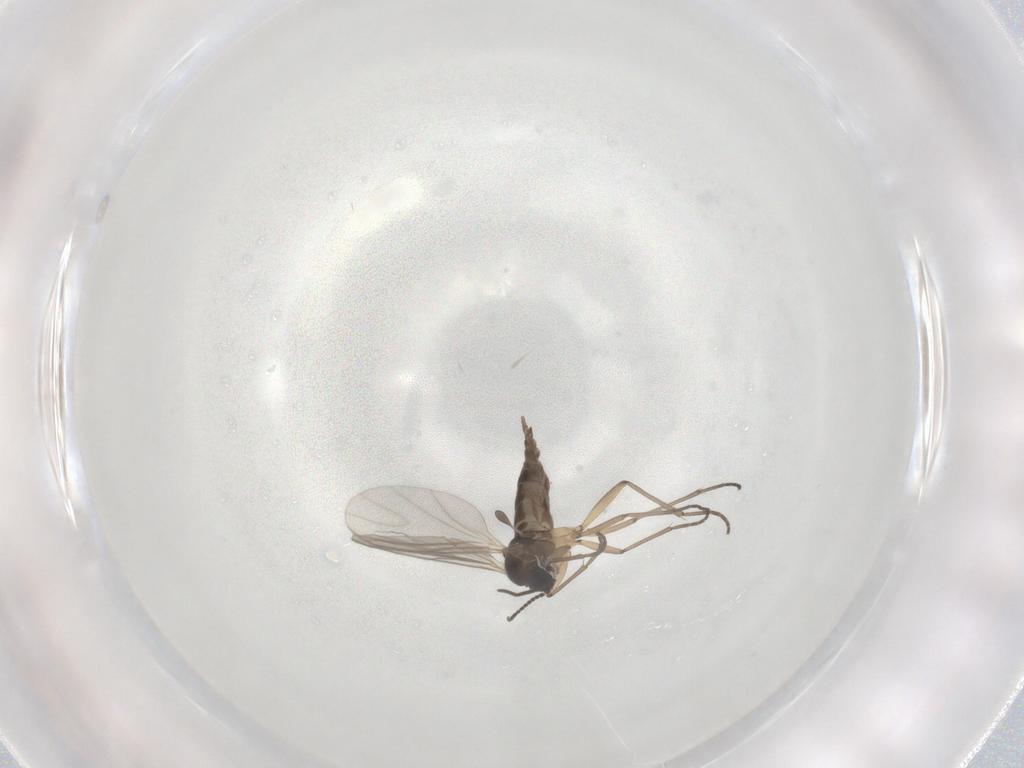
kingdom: Animalia
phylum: Arthropoda
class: Insecta
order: Diptera
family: Sciaridae
